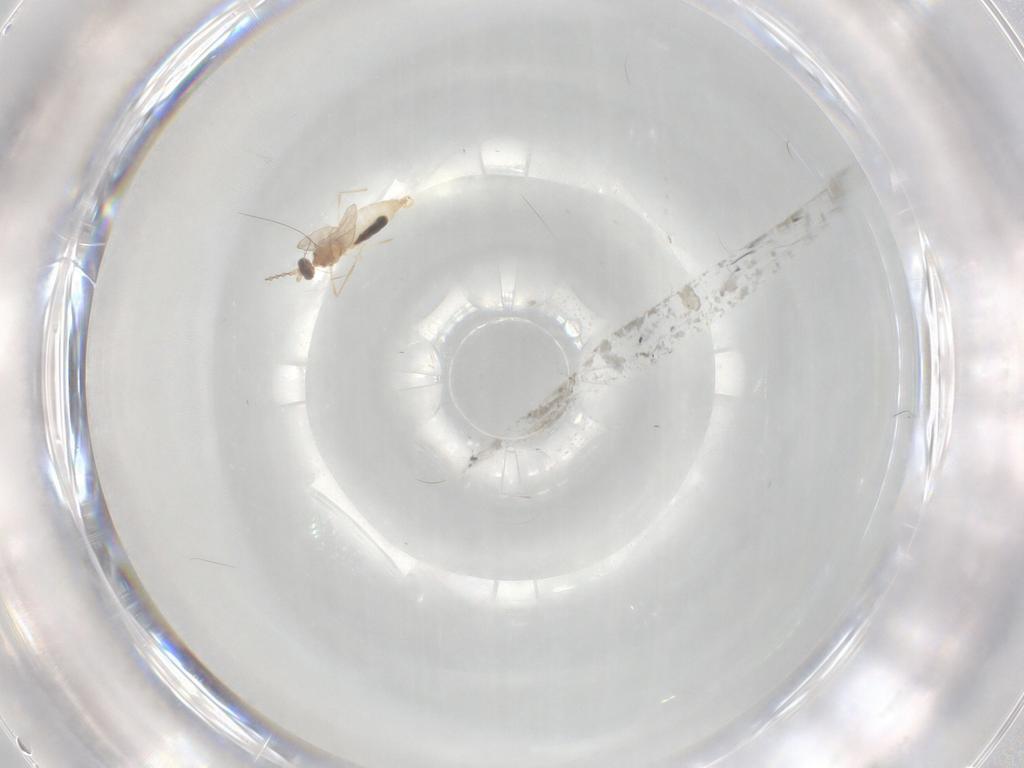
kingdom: Animalia
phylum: Arthropoda
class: Insecta
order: Diptera
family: Cecidomyiidae
